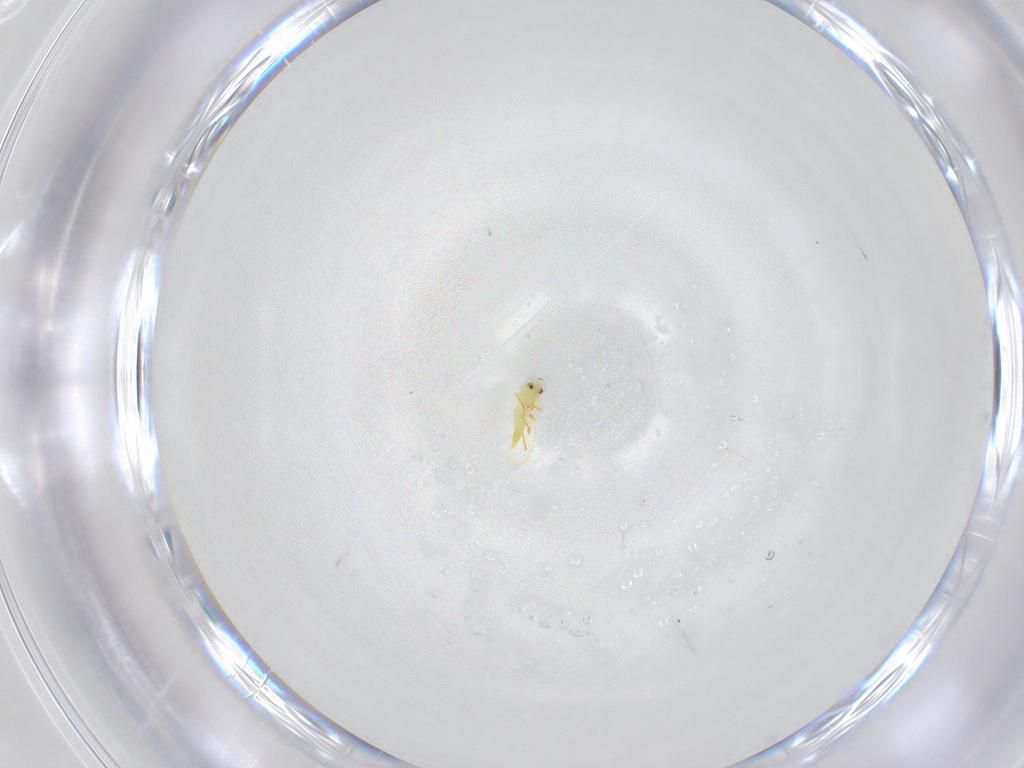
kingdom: Animalia
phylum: Arthropoda
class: Insecta
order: Hemiptera
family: Aleyrodidae
